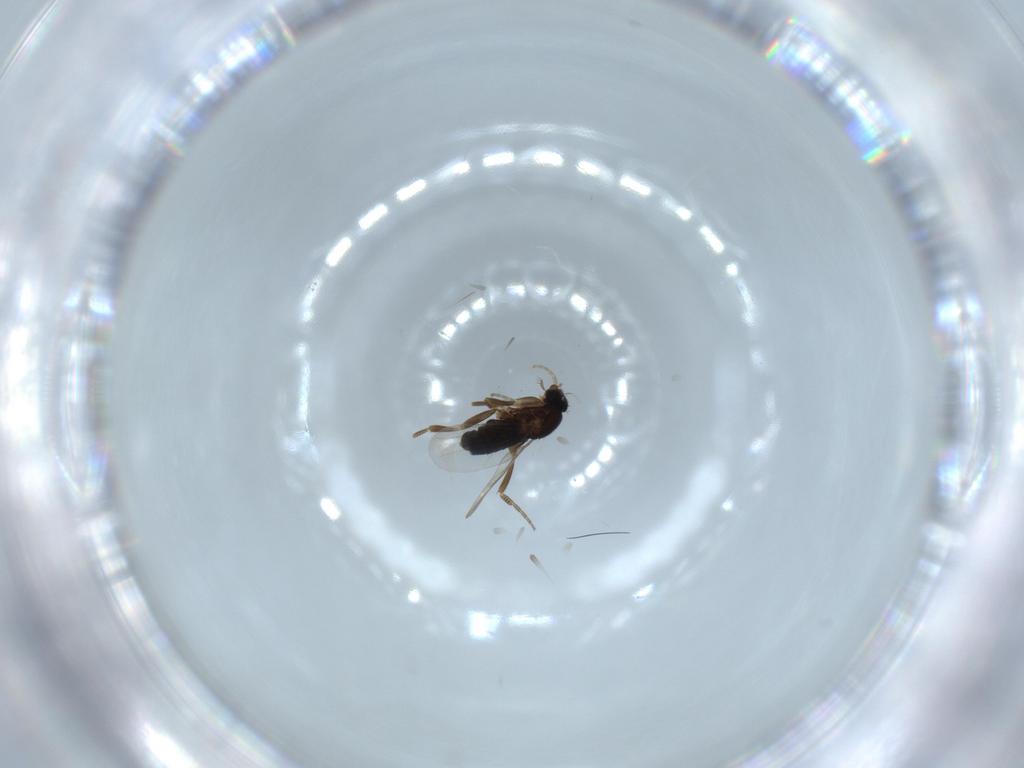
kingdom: Animalia
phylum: Arthropoda
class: Insecta
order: Diptera
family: Phoridae
